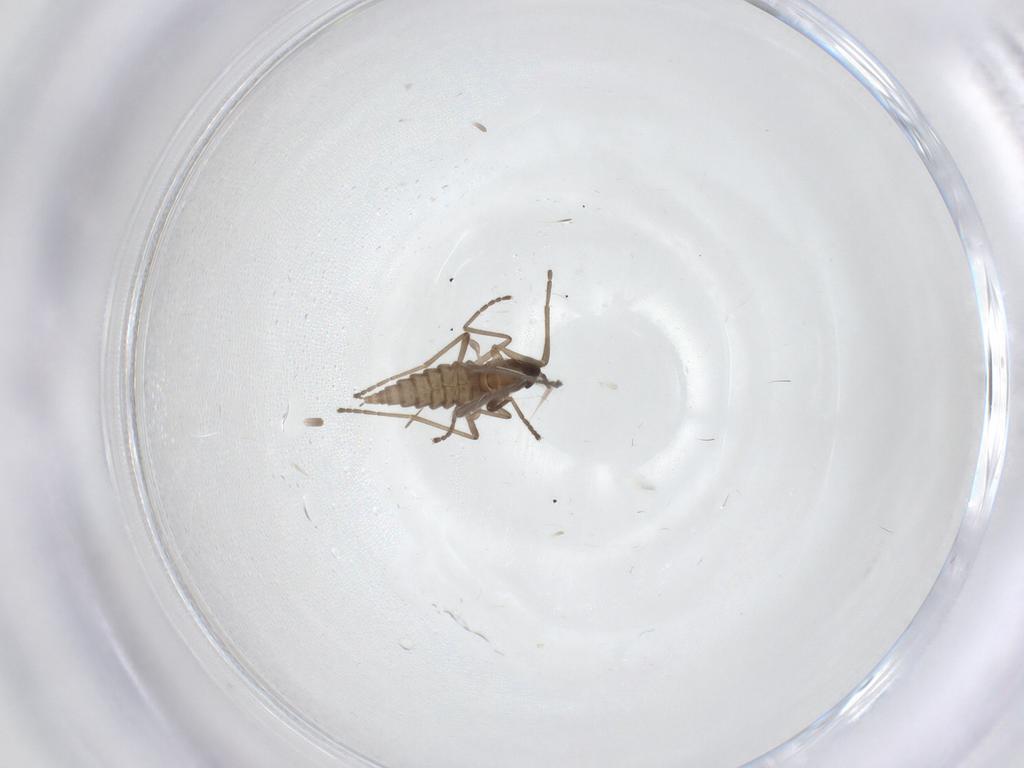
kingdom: Animalia
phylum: Arthropoda
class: Insecta
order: Diptera
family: Cecidomyiidae
